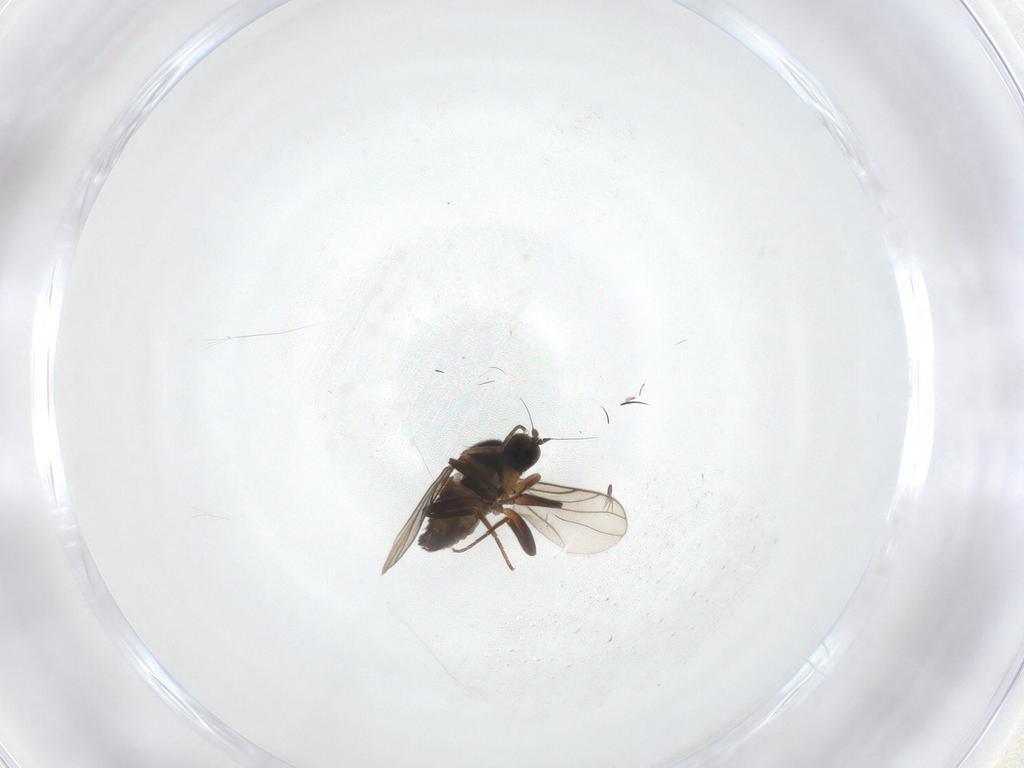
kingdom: Animalia
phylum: Arthropoda
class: Insecta
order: Diptera
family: Hybotidae
